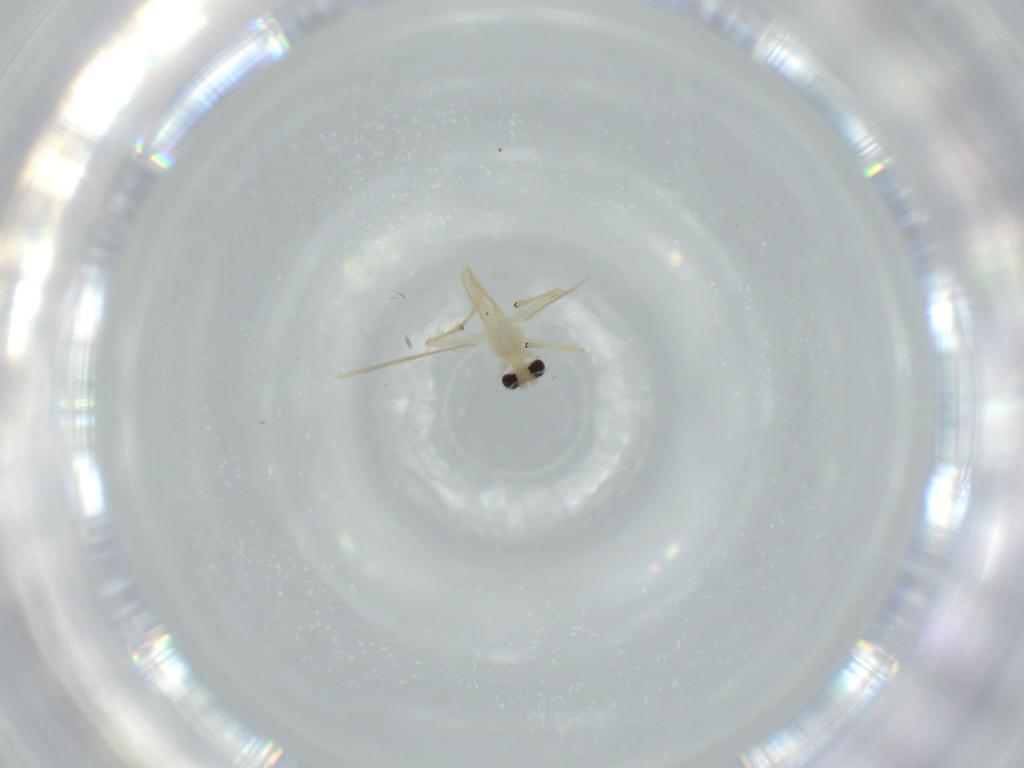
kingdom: Animalia
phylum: Arthropoda
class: Insecta
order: Diptera
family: Chironomidae
